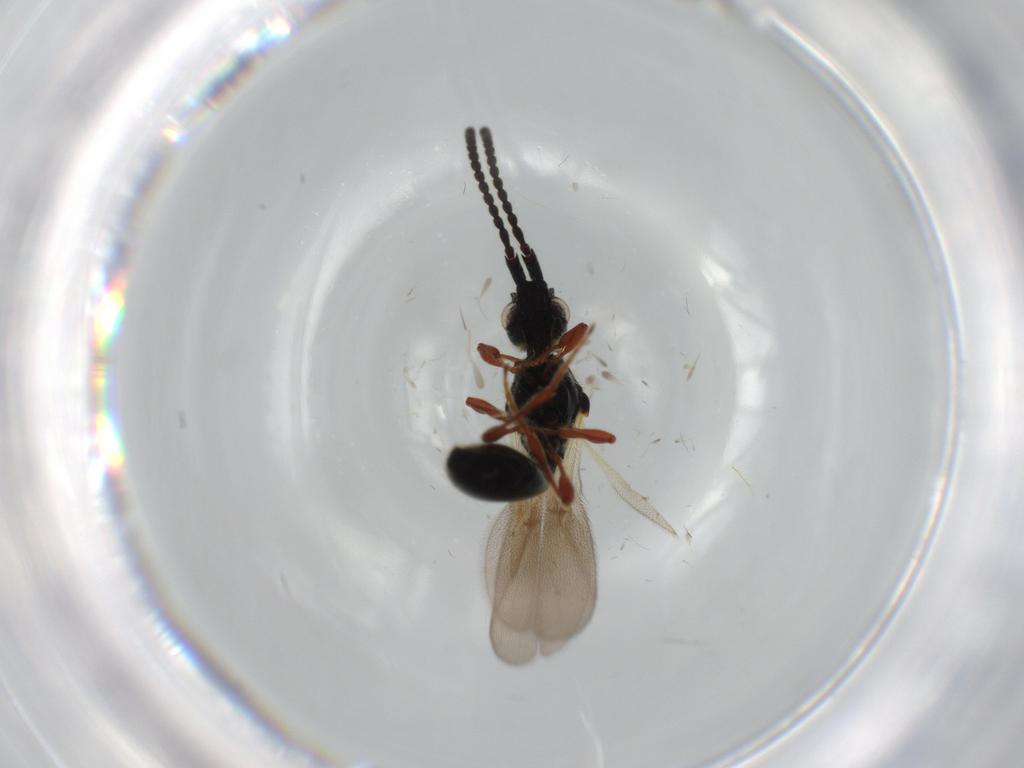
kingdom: Animalia
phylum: Arthropoda
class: Insecta
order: Hymenoptera
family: Diapriidae
